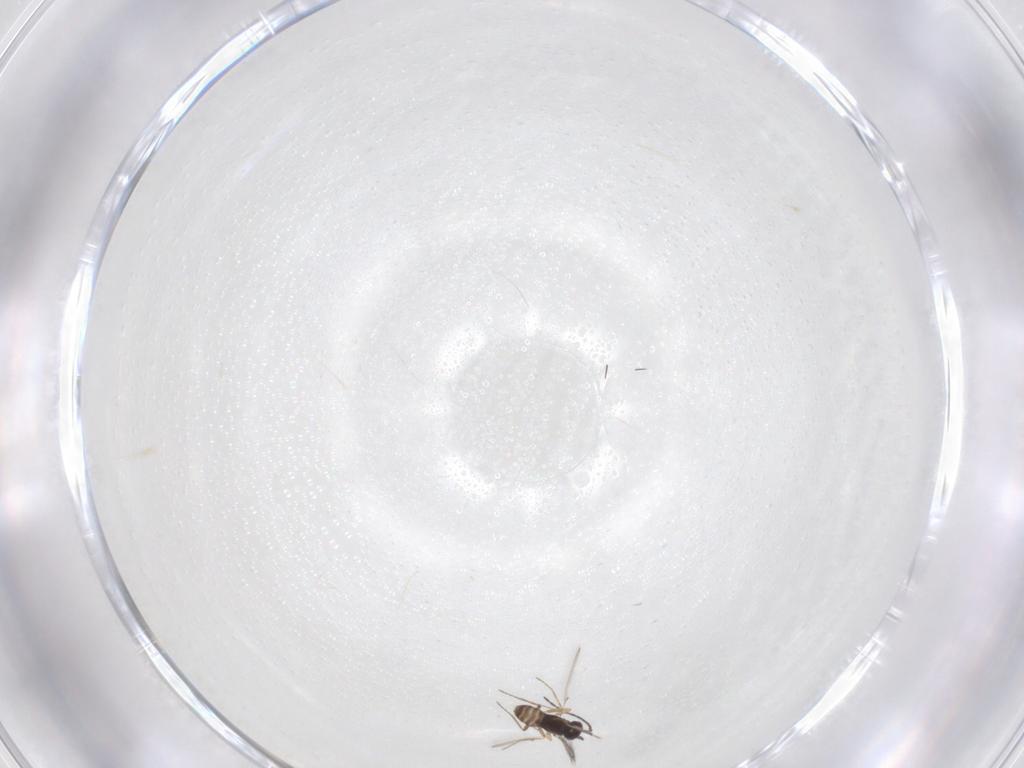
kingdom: Animalia
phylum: Arthropoda
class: Insecta
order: Hymenoptera
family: Mymaridae
